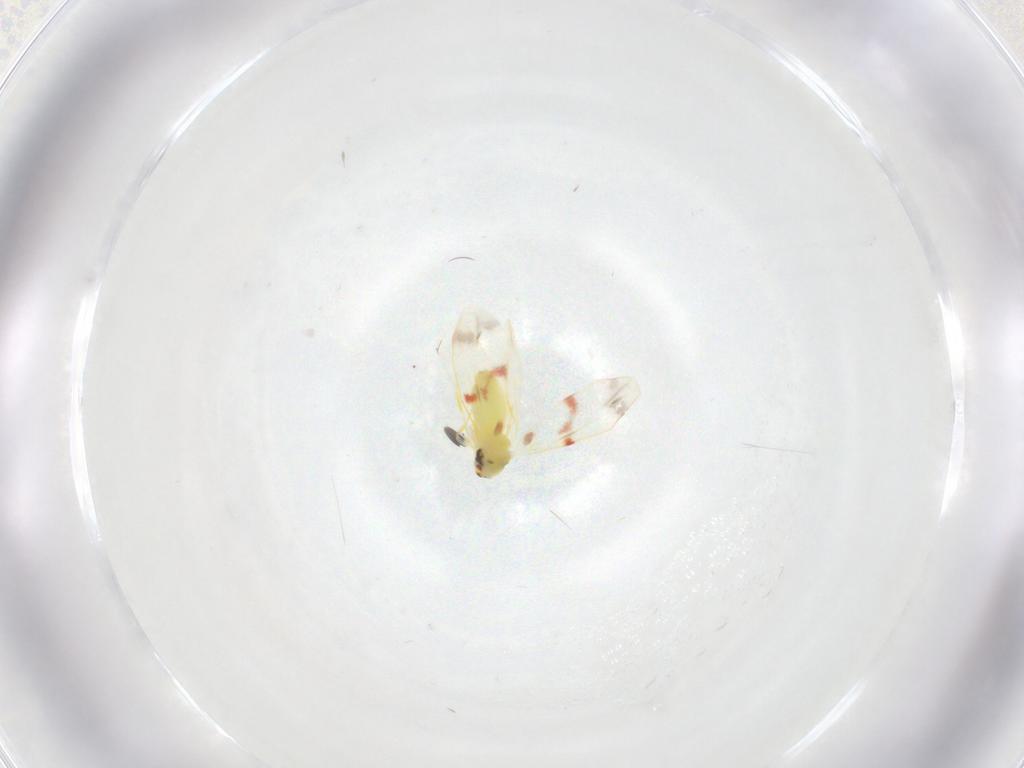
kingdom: Animalia
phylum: Arthropoda
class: Insecta
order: Hemiptera
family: Cixiidae
